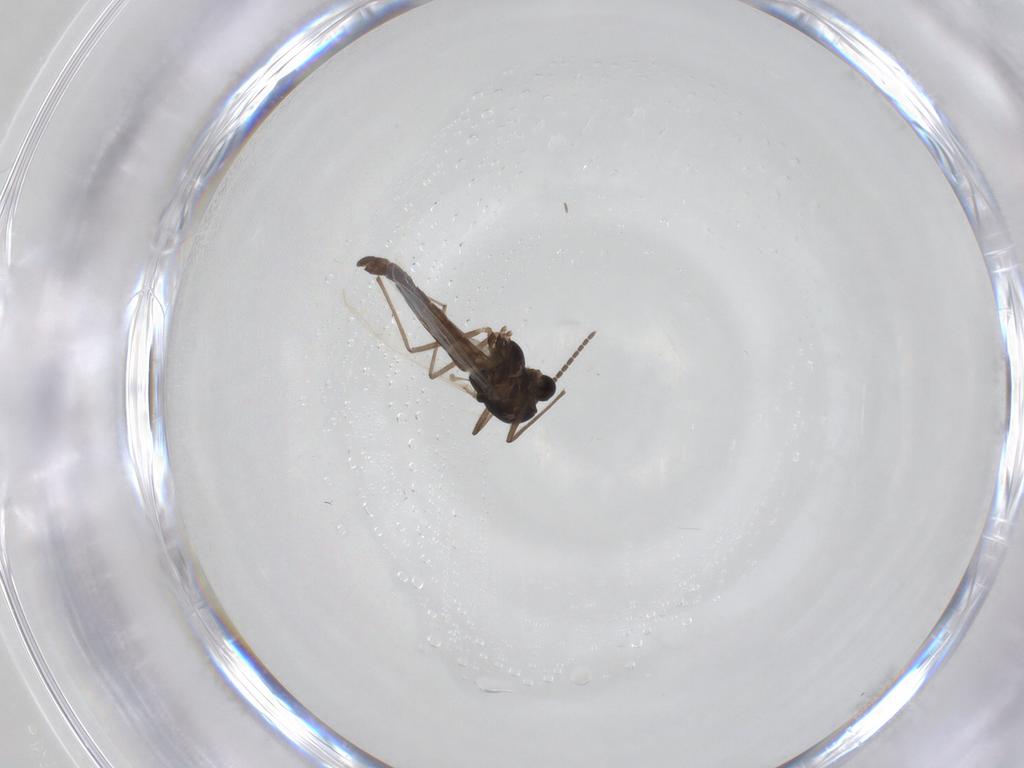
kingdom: Animalia
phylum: Arthropoda
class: Insecta
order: Diptera
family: Chironomidae
